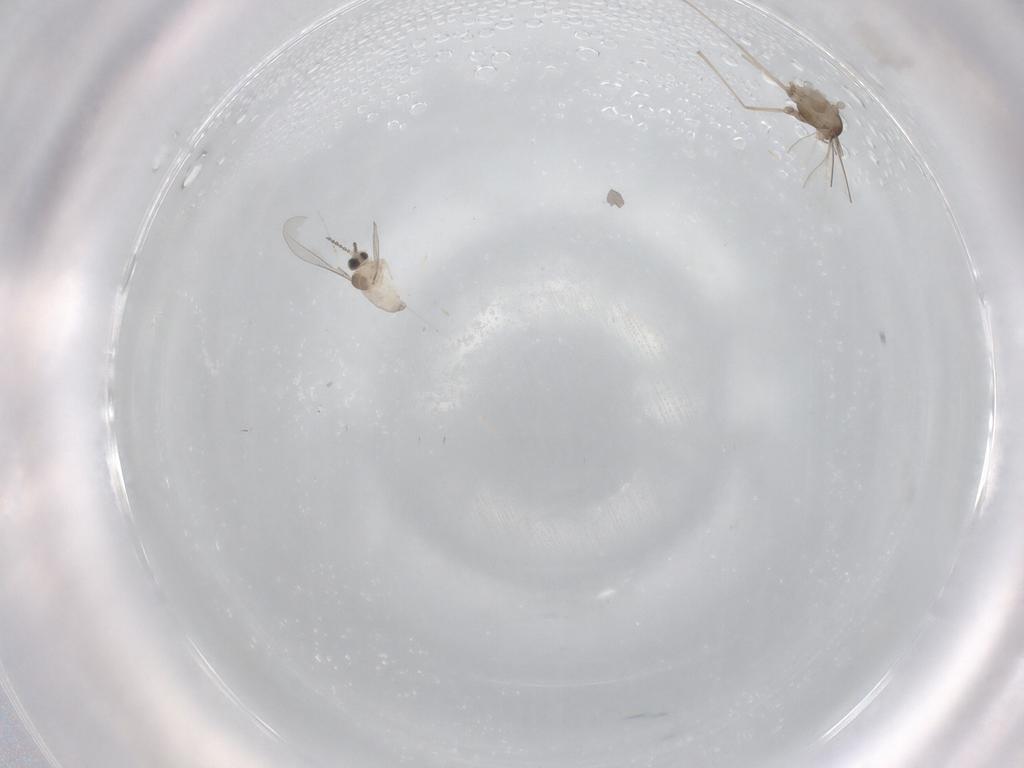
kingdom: Animalia
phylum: Arthropoda
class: Insecta
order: Diptera
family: Psychodidae
